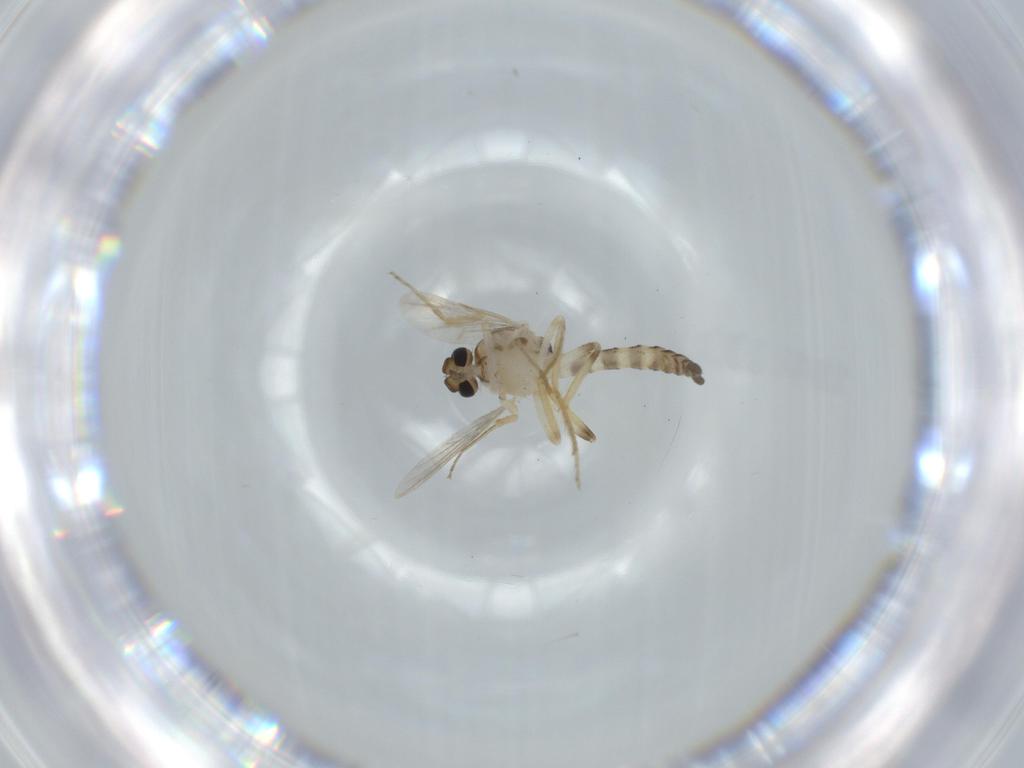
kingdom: Animalia
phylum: Arthropoda
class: Insecta
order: Diptera
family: Ceratopogonidae
